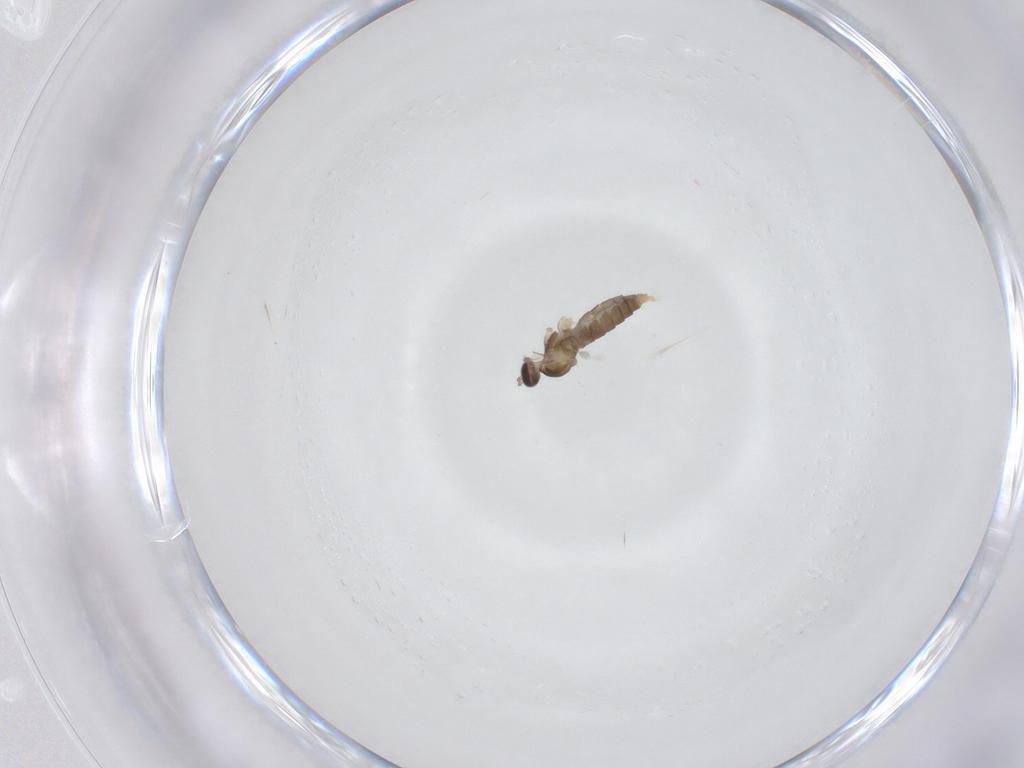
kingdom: Animalia
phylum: Arthropoda
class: Insecta
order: Diptera
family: Cecidomyiidae
